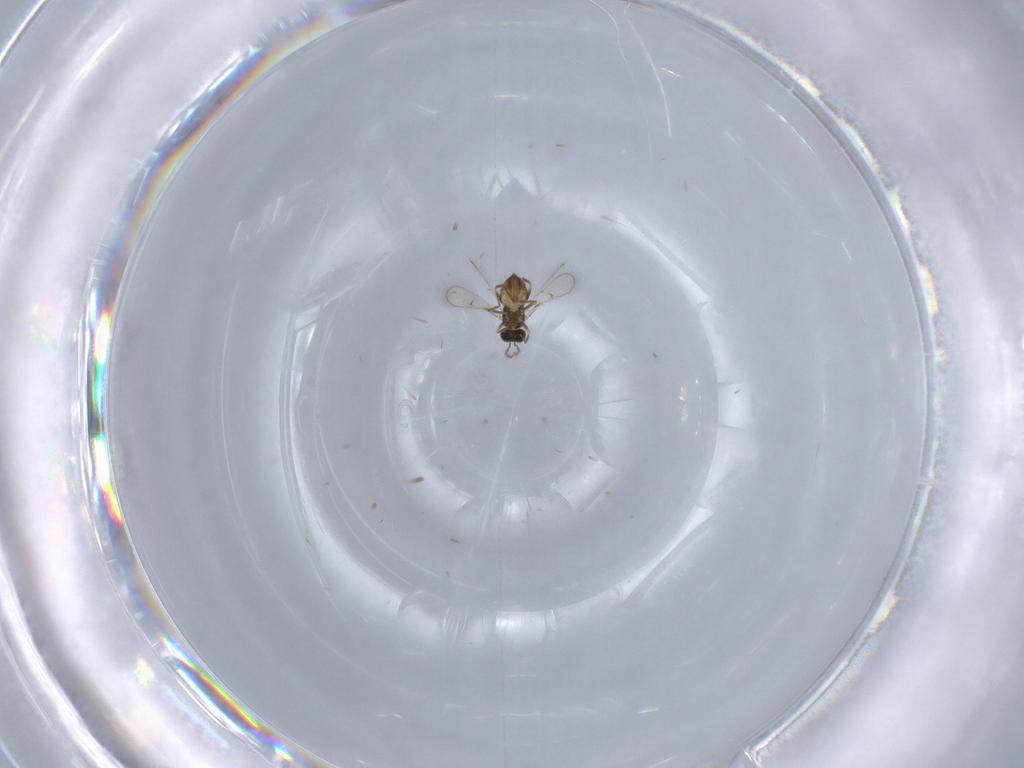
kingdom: Animalia
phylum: Arthropoda
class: Insecta
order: Hymenoptera
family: Trichogrammatidae
